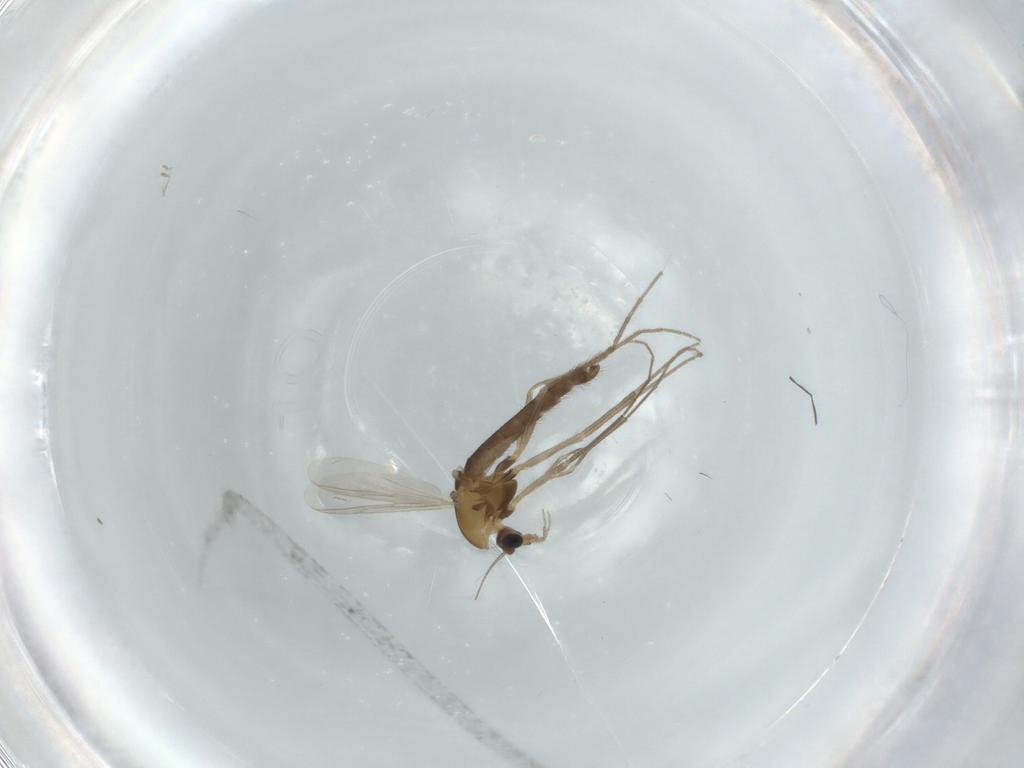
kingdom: Animalia
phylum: Arthropoda
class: Insecta
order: Diptera
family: Chironomidae
